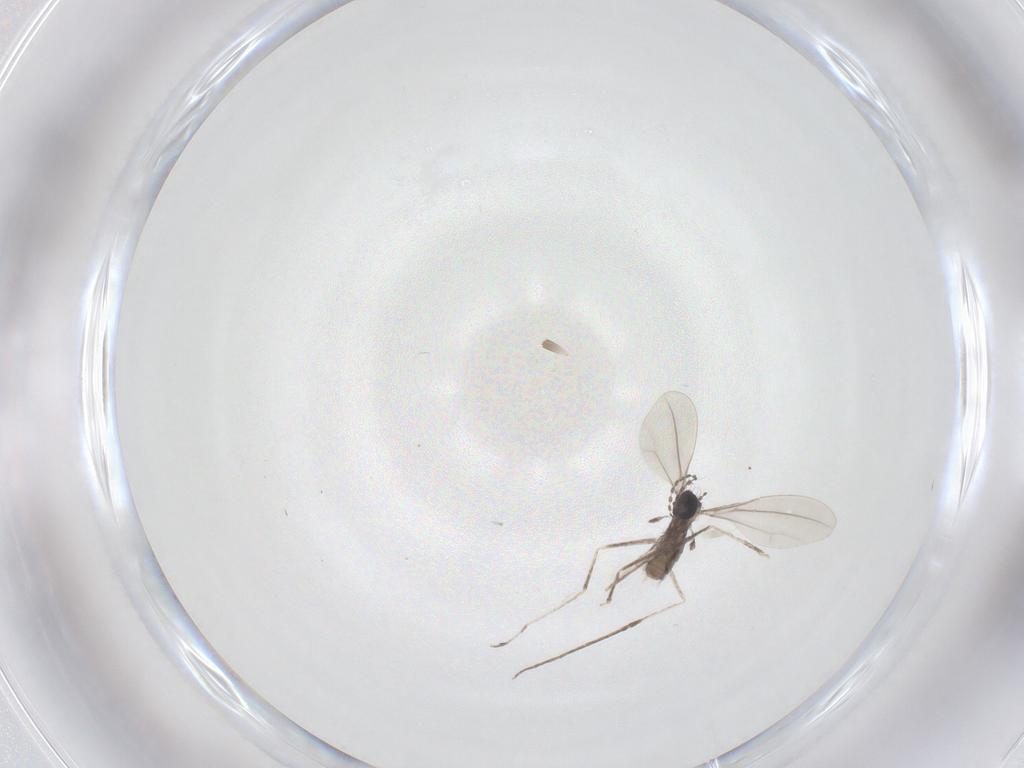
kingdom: Animalia
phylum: Arthropoda
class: Insecta
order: Diptera
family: Cecidomyiidae
